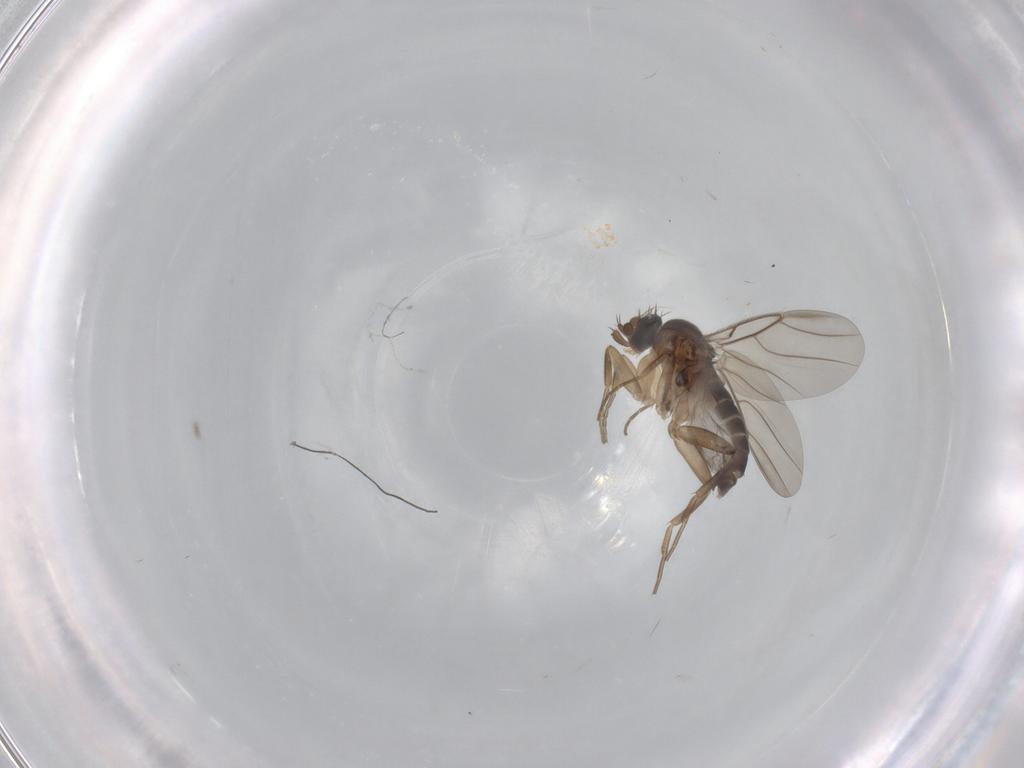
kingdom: Animalia
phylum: Arthropoda
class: Insecta
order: Diptera
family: Phoridae
